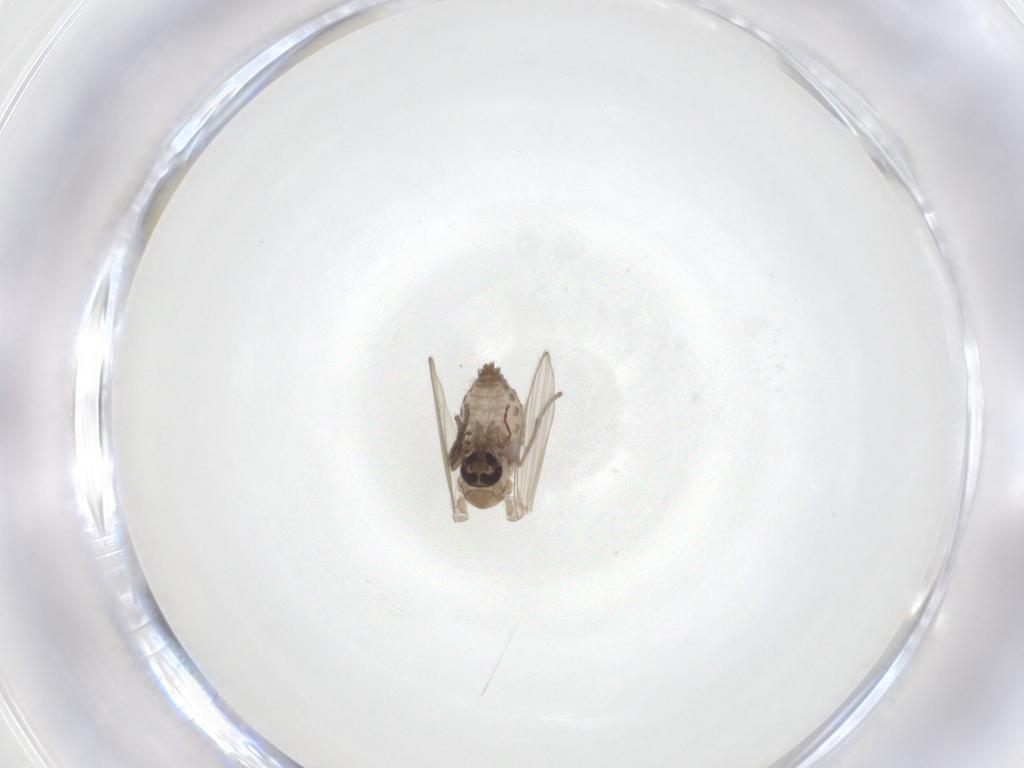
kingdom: Animalia
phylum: Arthropoda
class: Insecta
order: Diptera
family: Psychodidae
